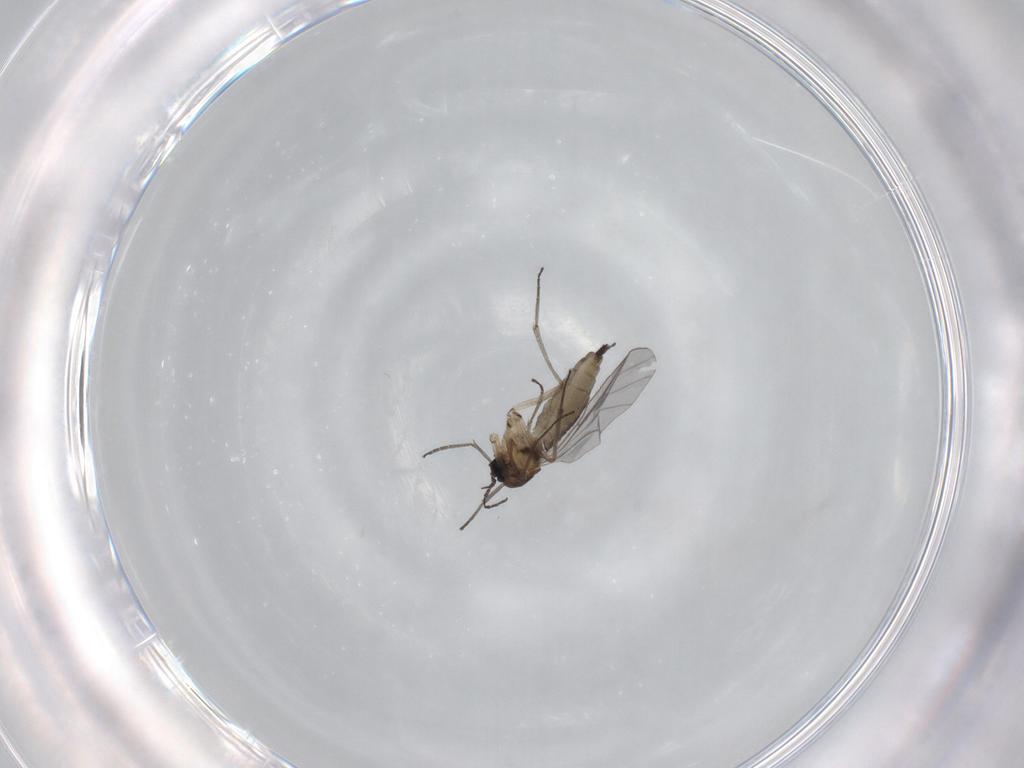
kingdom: Animalia
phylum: Arthropoda
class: Insecta
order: Diptera
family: Sciaridae
